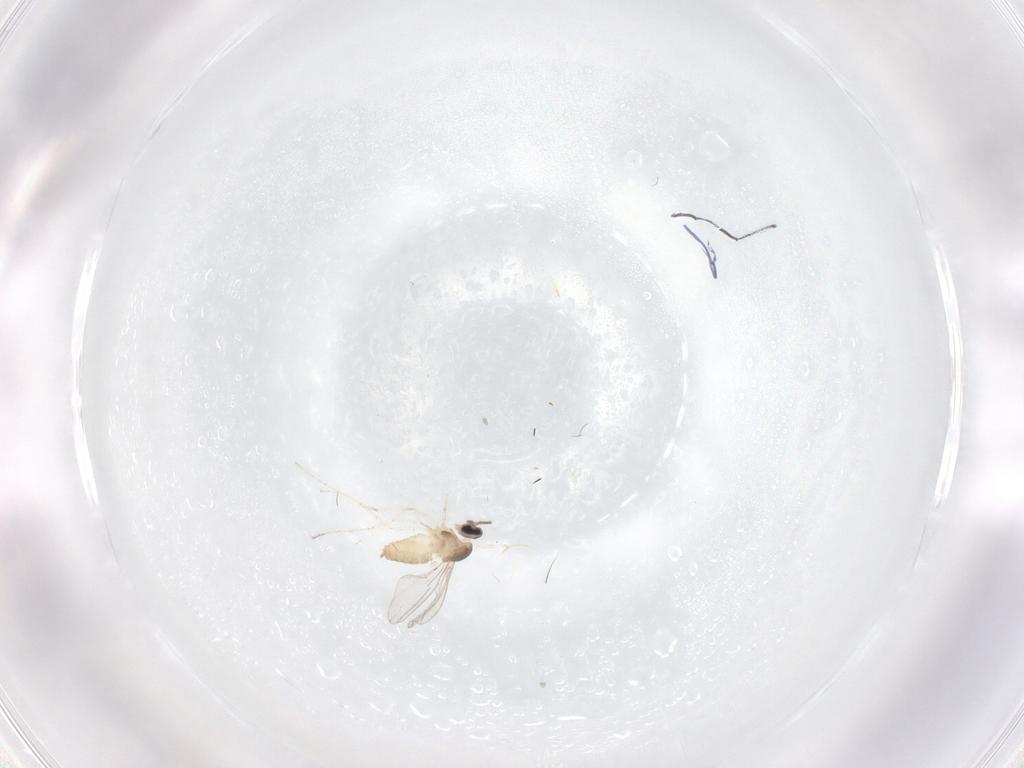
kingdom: Animalia
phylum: Arthropoda
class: Insecta
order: Diptera
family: Cecidomyiidae
